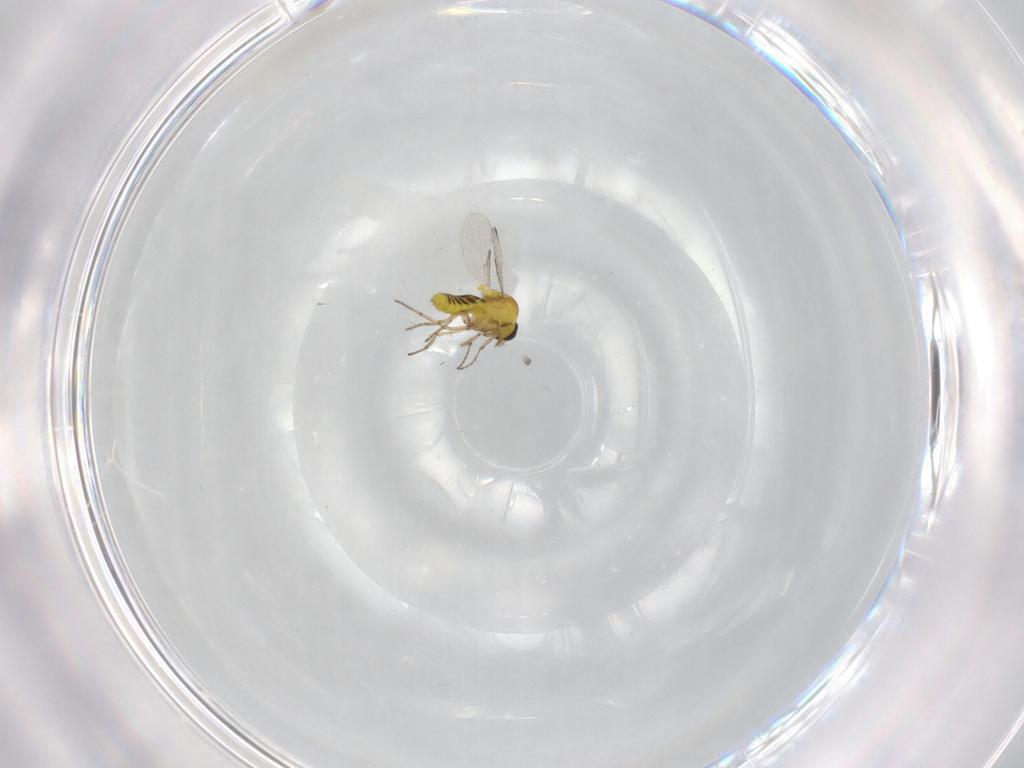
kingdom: Animalia
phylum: Arthropoda
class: Insecta
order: Diptera
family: Ceratopogonidae
